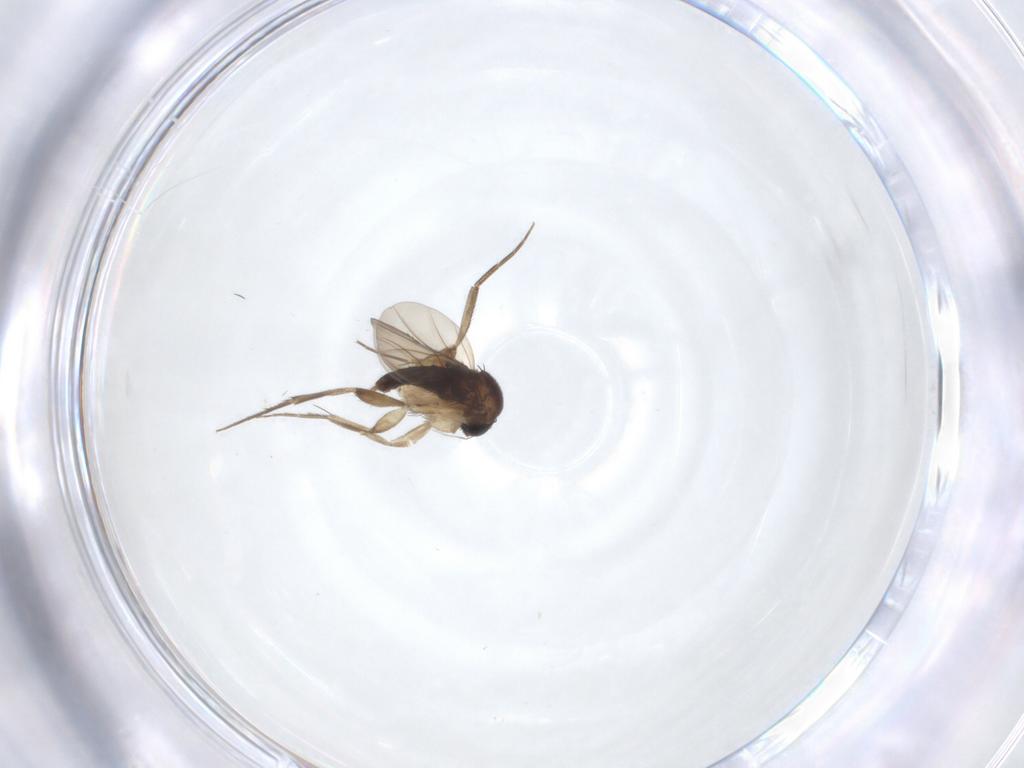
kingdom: Animalia
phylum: Arthropoda
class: Insecta
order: Diptera
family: Phoridae
